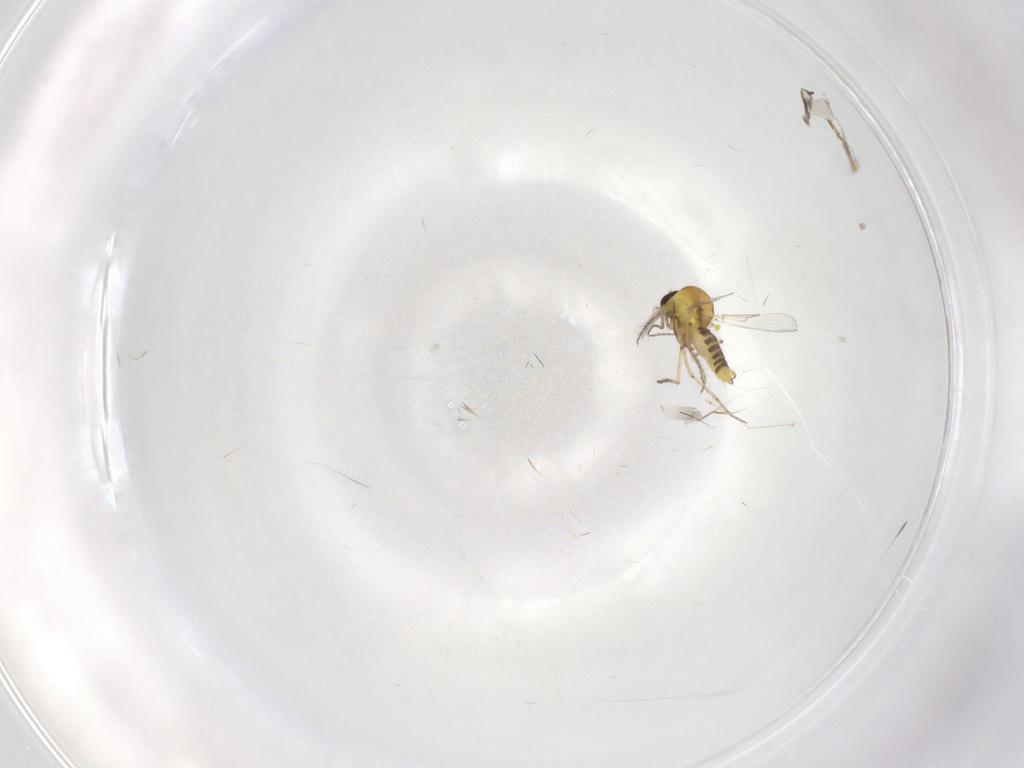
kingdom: Animalia
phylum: Arthropoda
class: Insecta
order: Diptera
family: Ceratopogonidae
